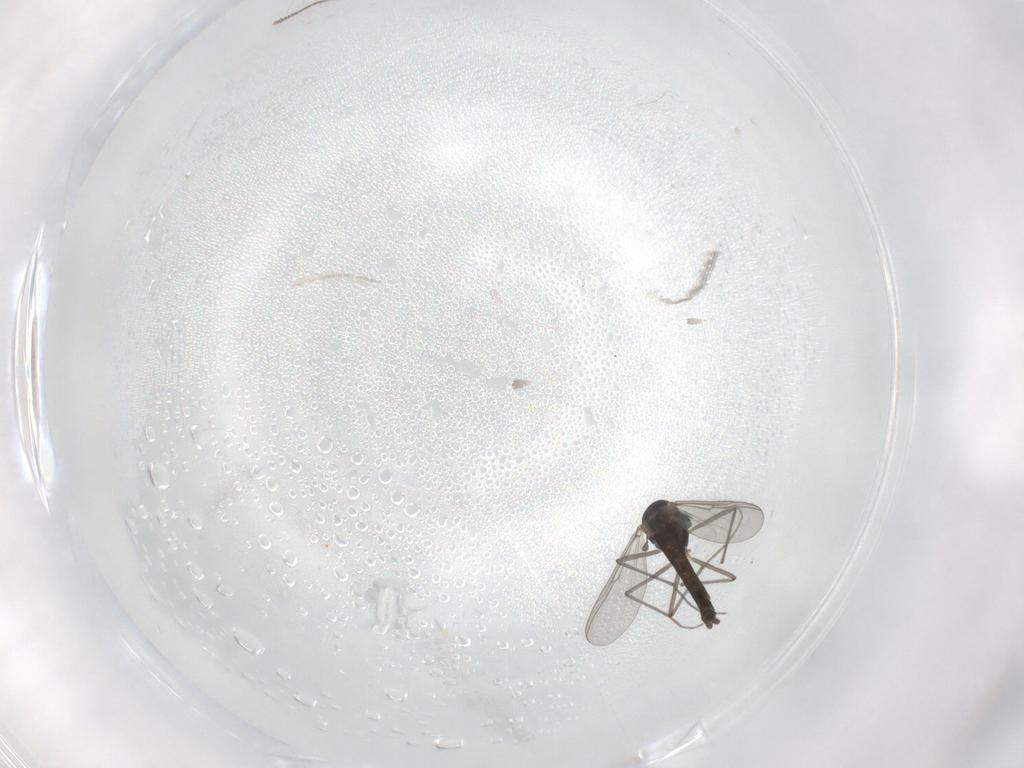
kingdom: Animalia
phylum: Arthropoda
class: Insecta
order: Diptera
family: Chironomidae
